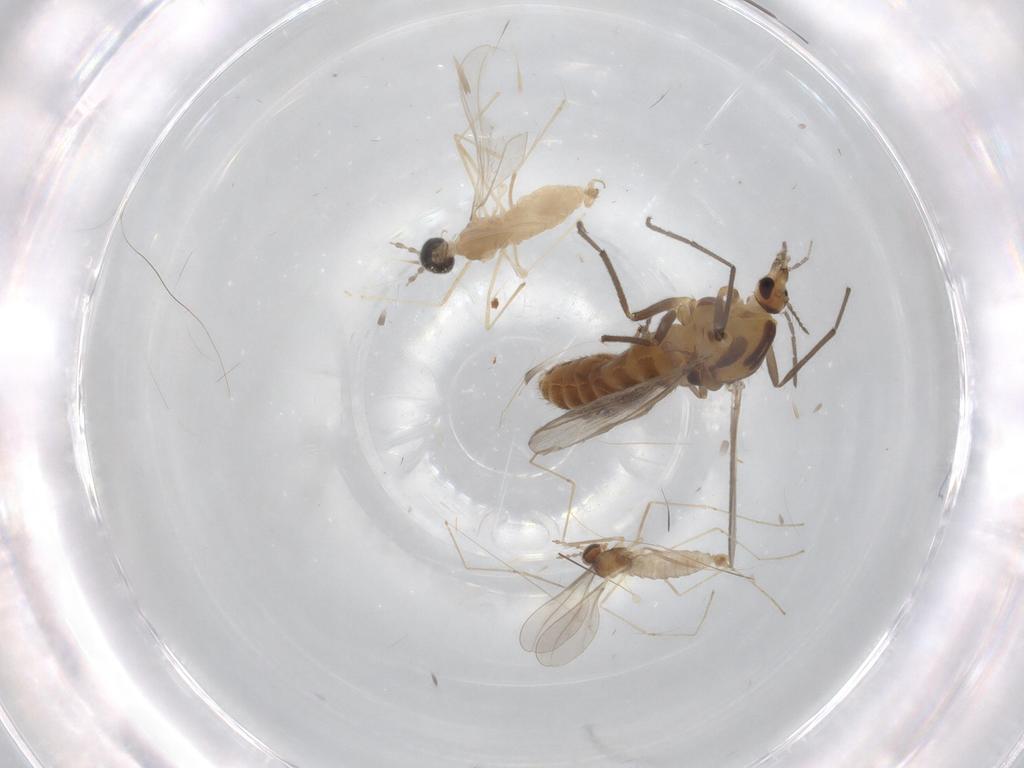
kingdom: Animalia
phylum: Arthropoda
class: Insecta
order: Diptera
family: Chironomidae
